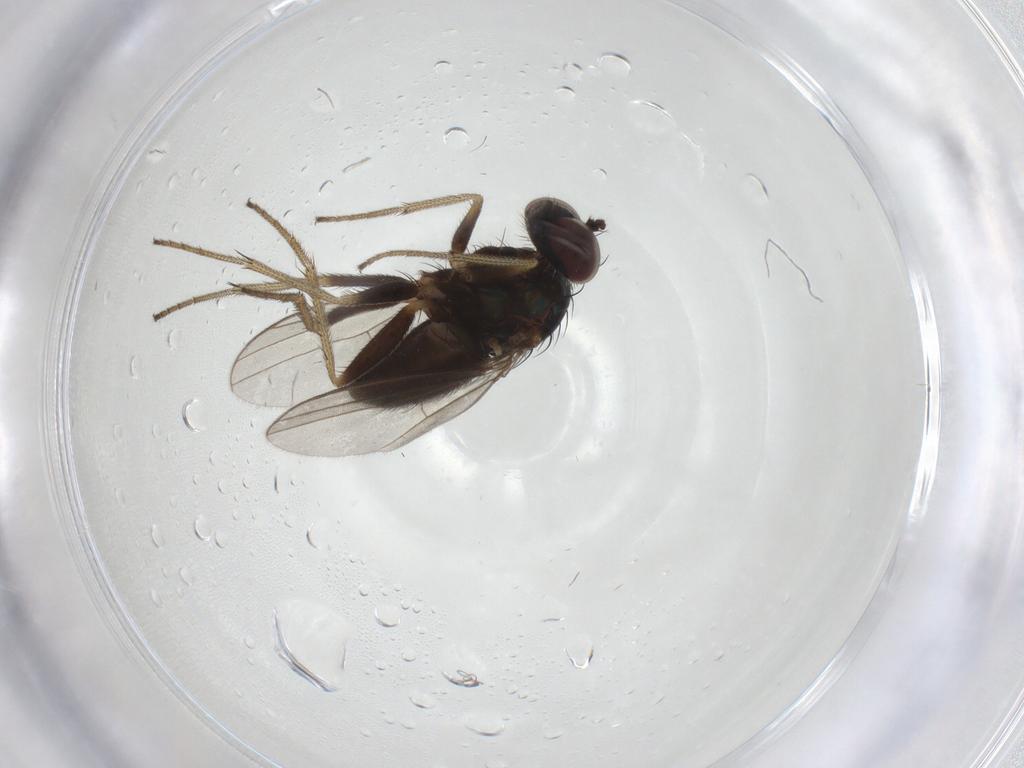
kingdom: Animalia
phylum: Arthropoda
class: Insecta
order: Diptera
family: Dolichopodidae
